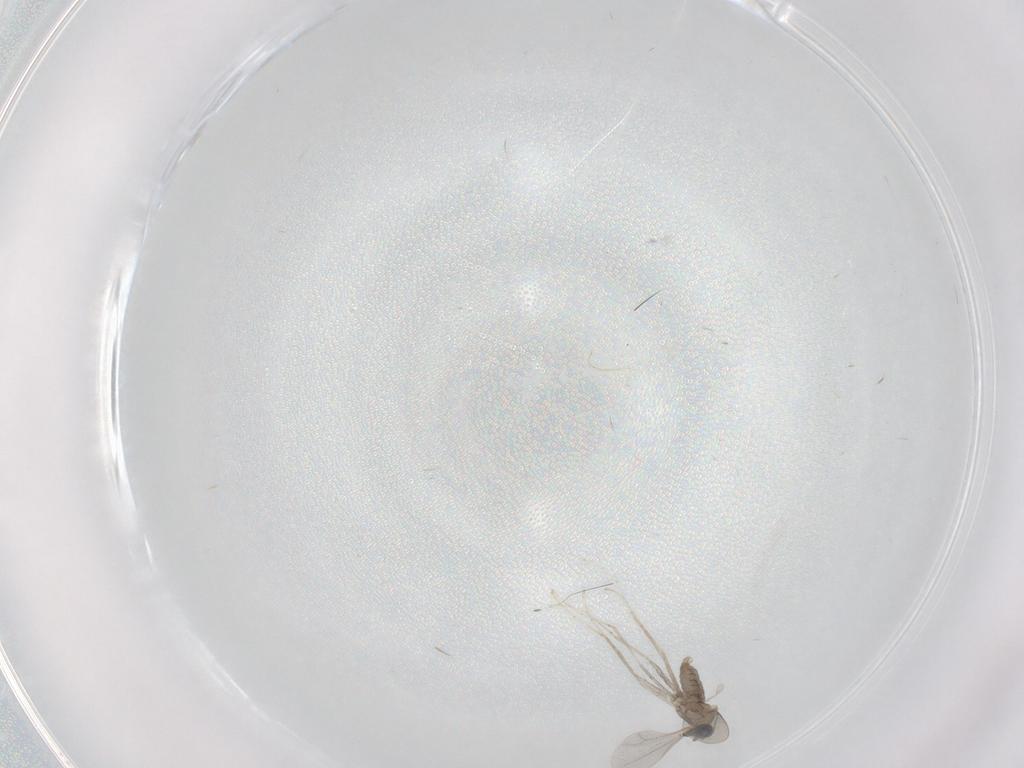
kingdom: Animalia
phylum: Arthropoda
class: Insecta
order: Diptera
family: Cecidomyiidae
